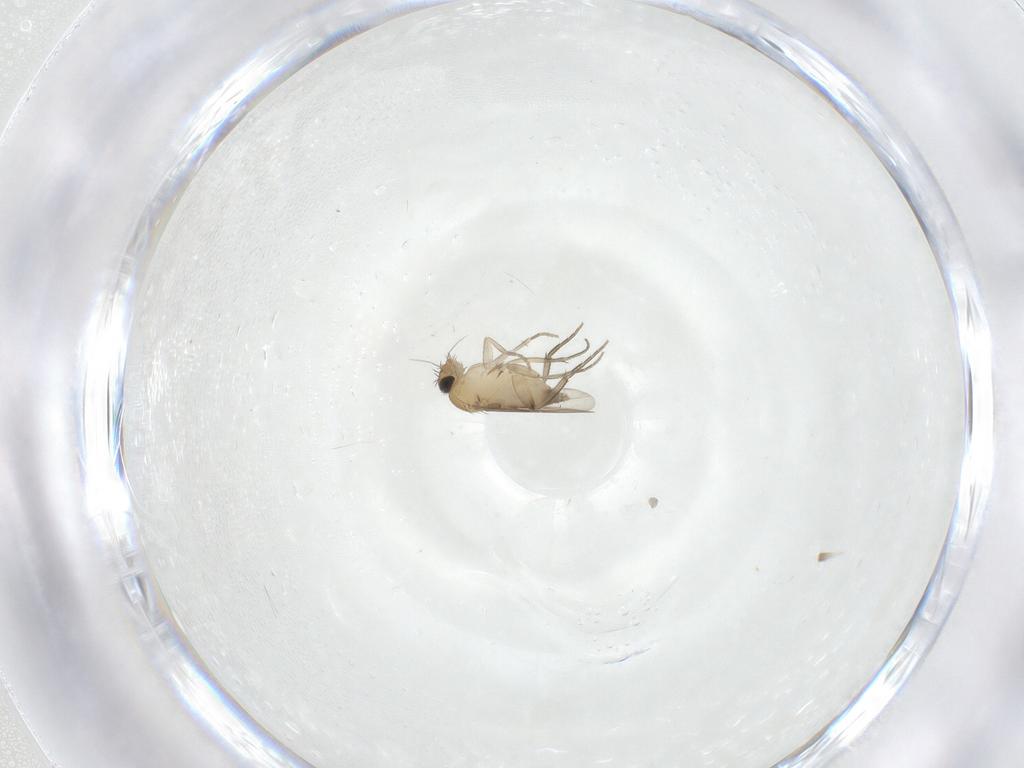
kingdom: Animalia
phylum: Arthropoda
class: Insecta
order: Diptera
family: Phoridae
